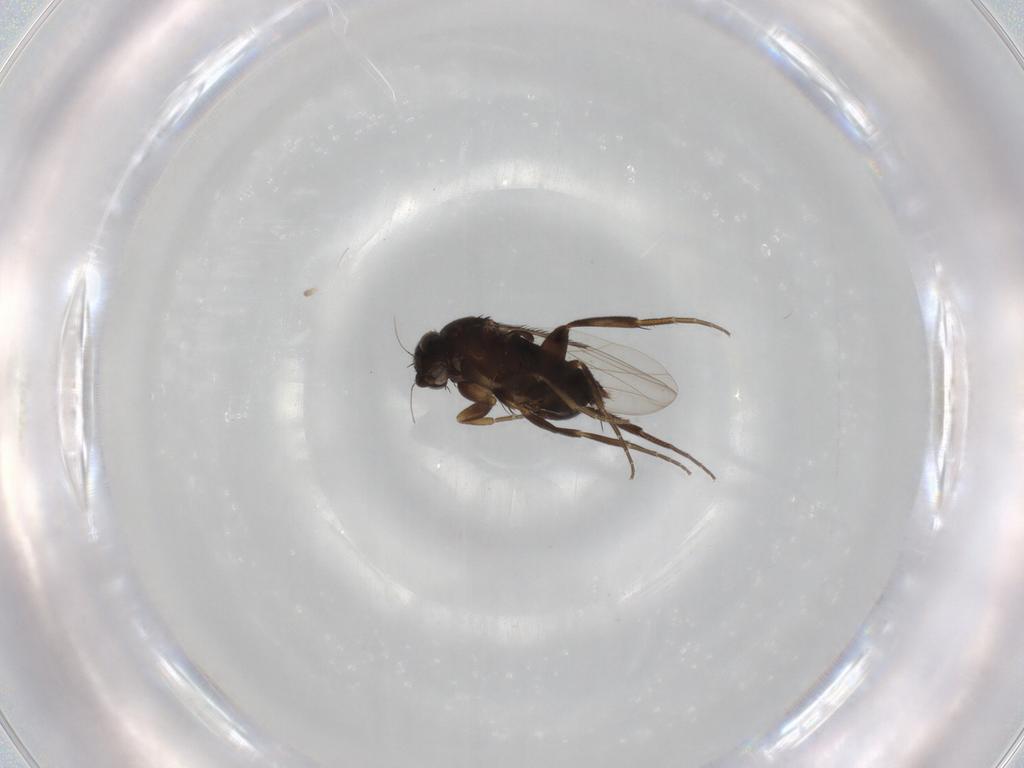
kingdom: Animalia
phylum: Arthropoda
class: Insecta
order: Diptera
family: Phoridae
